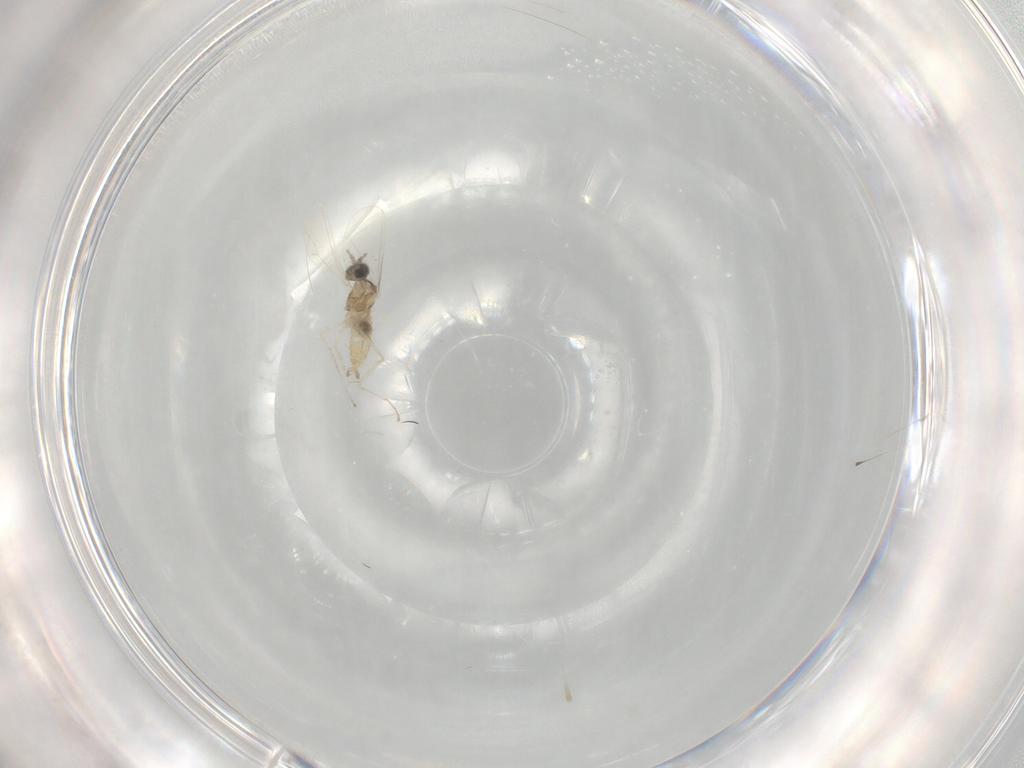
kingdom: Animalia
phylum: Arthropoda
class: Insecta
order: Diptera
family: Cecidomyiidae
